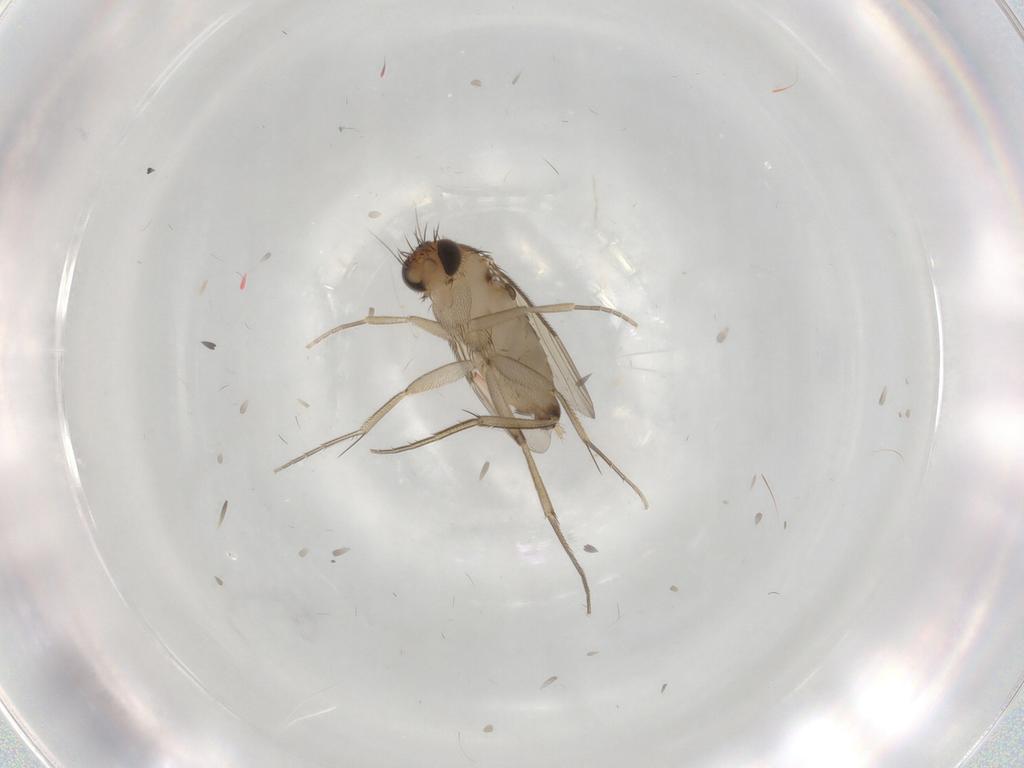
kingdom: Animalia
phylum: Arthropoda
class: Insecta
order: Diptera
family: Phoridae
